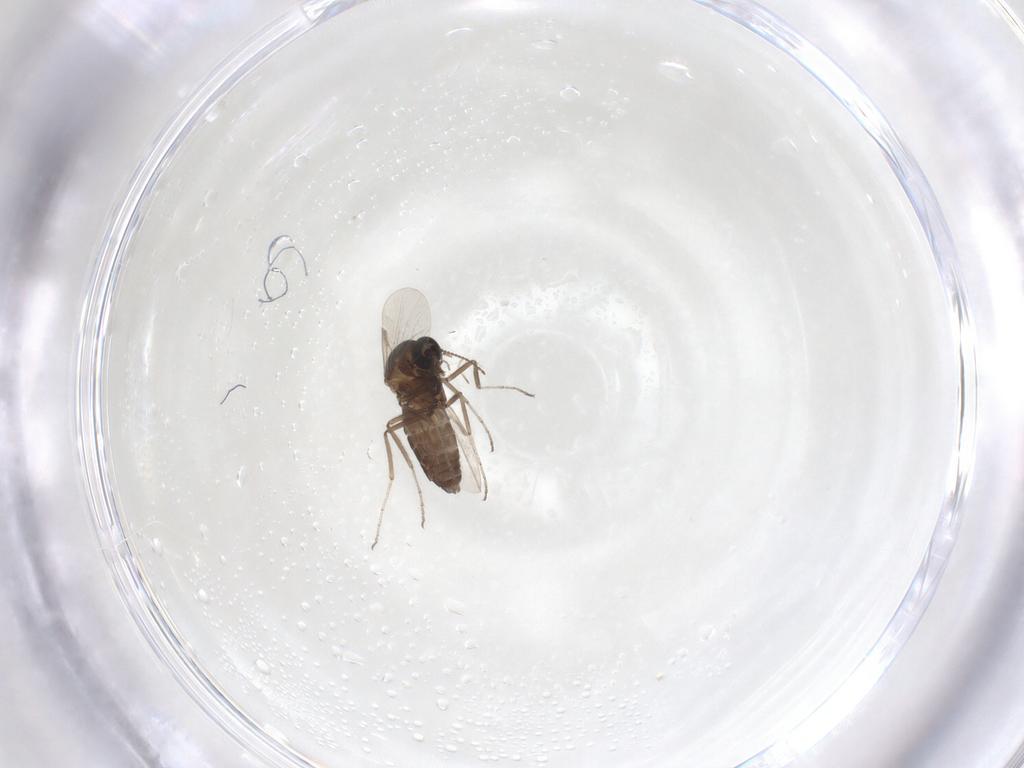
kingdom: Animalia
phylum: Arthropoda
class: Insecta
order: Diptera
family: Ceratopogonidae
